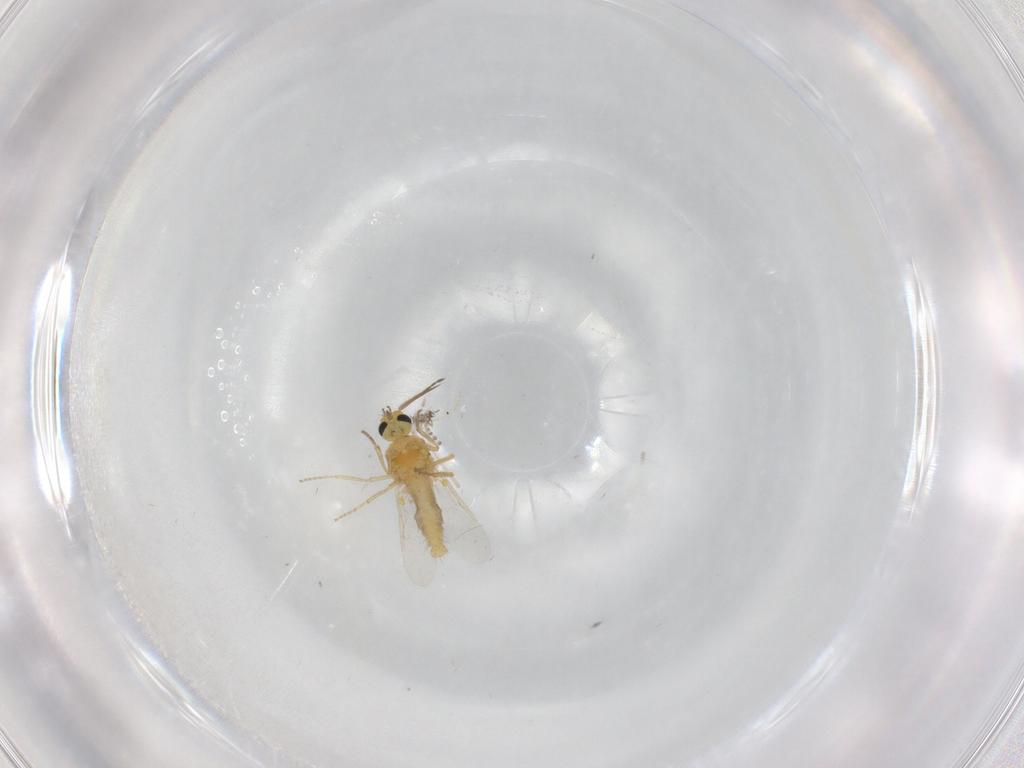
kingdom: Animalia
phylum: Arthropoda
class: Insecta
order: Diptera
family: Ceratopogonidae
